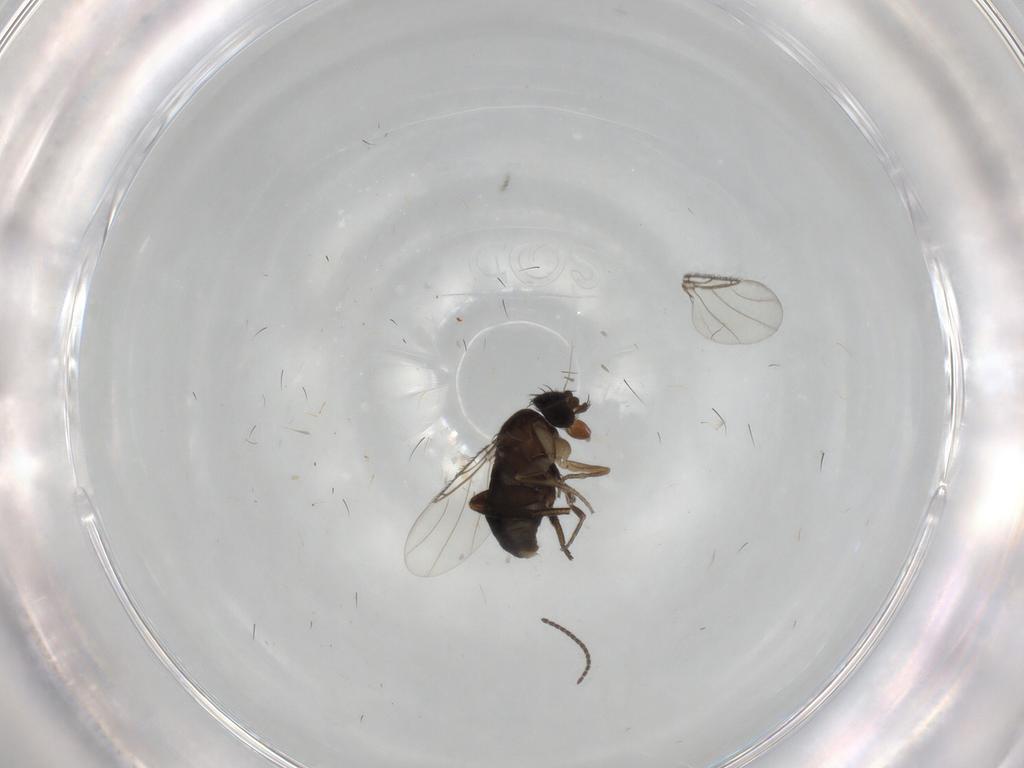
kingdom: Animalia
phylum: Arthropoda
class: Insecta
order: Diptera
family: Phoridae
